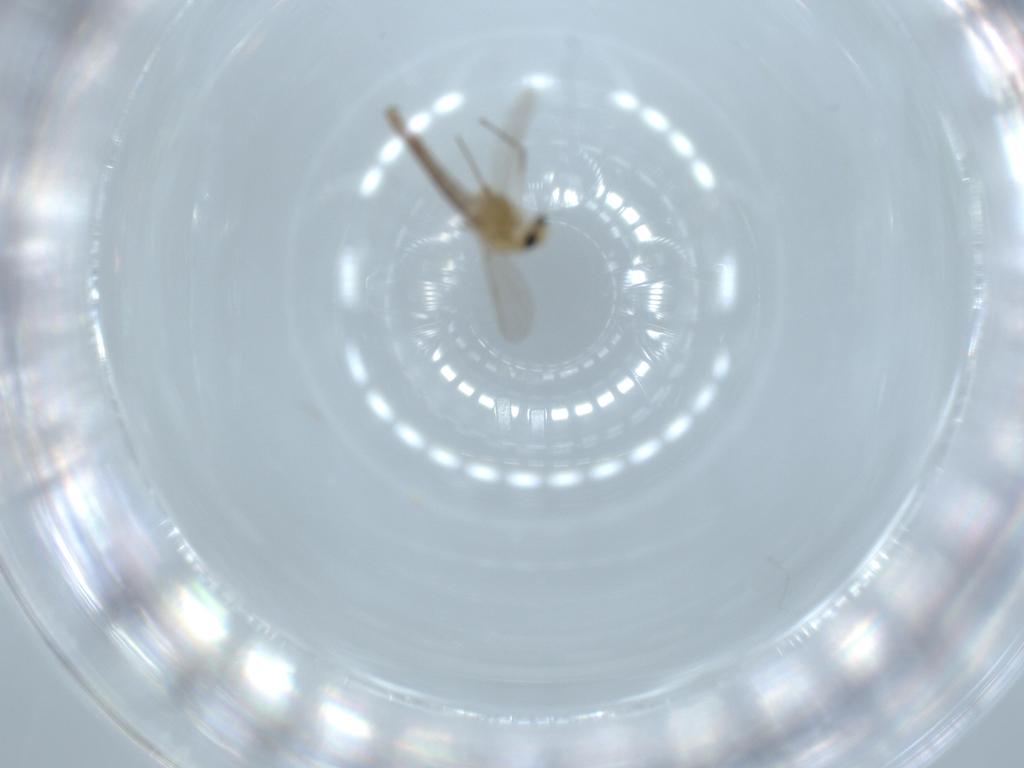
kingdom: Animalia
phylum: Arthropoda
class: Insecta
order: Diptera
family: Chironomidae
